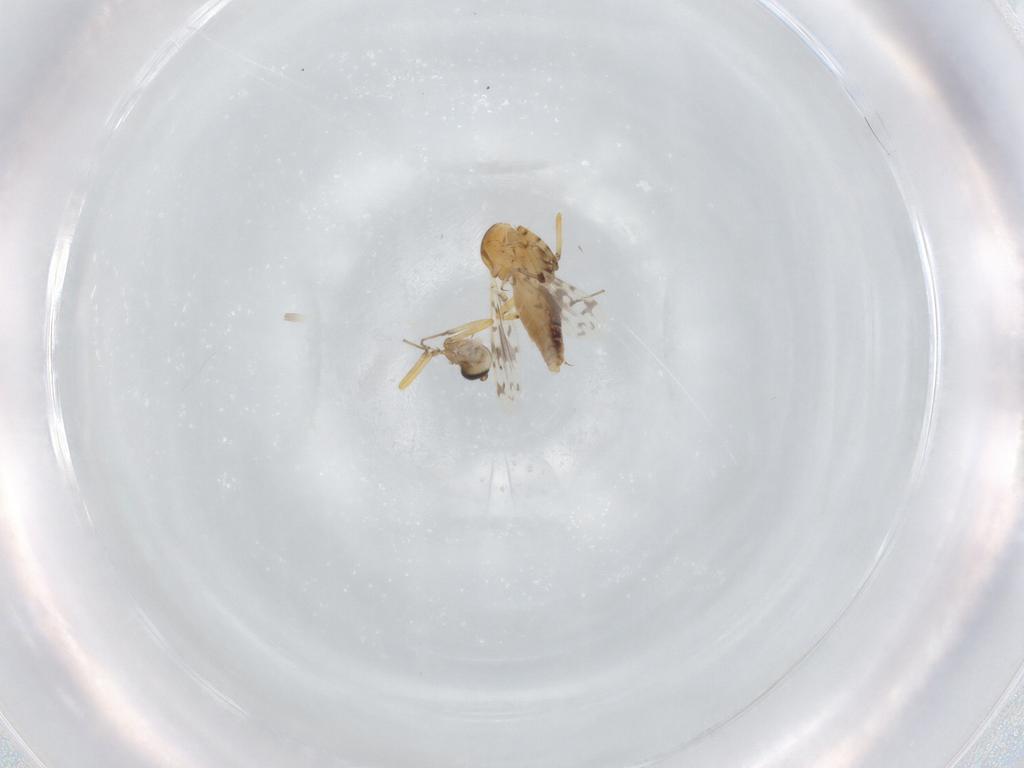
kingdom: Animalia
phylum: Arthropoda
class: Insecta
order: Diptera
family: Ceratopogonidae
